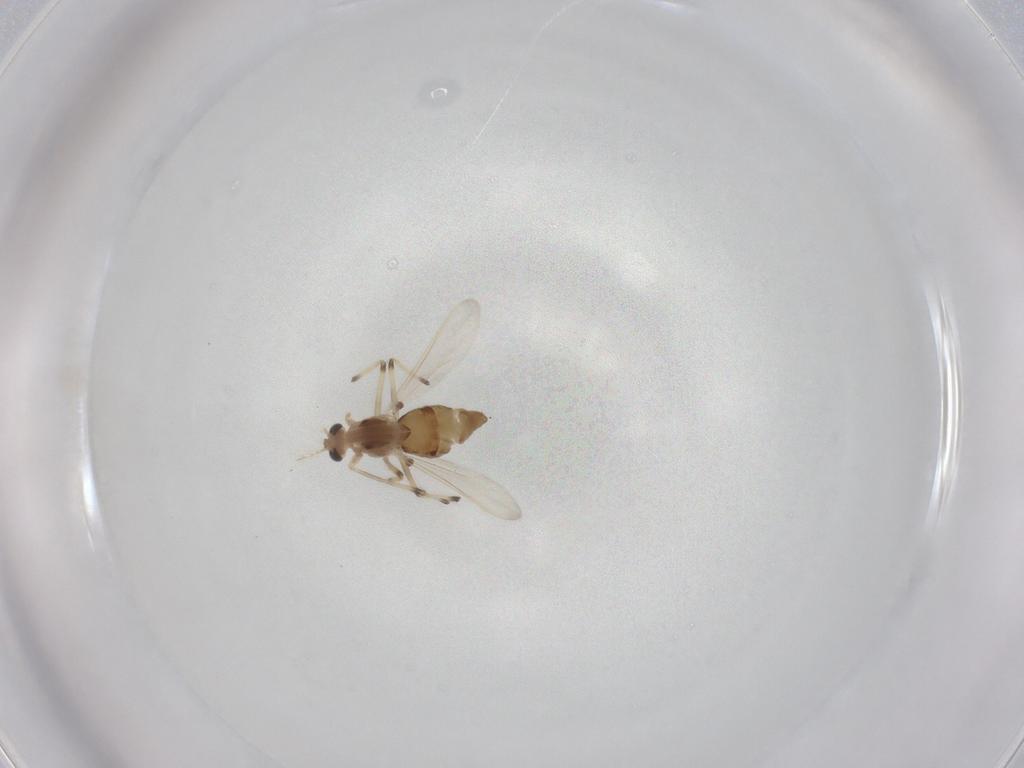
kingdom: Animalia
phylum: Arthropoda
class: Insecta
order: Diptera
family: Chironomidae
